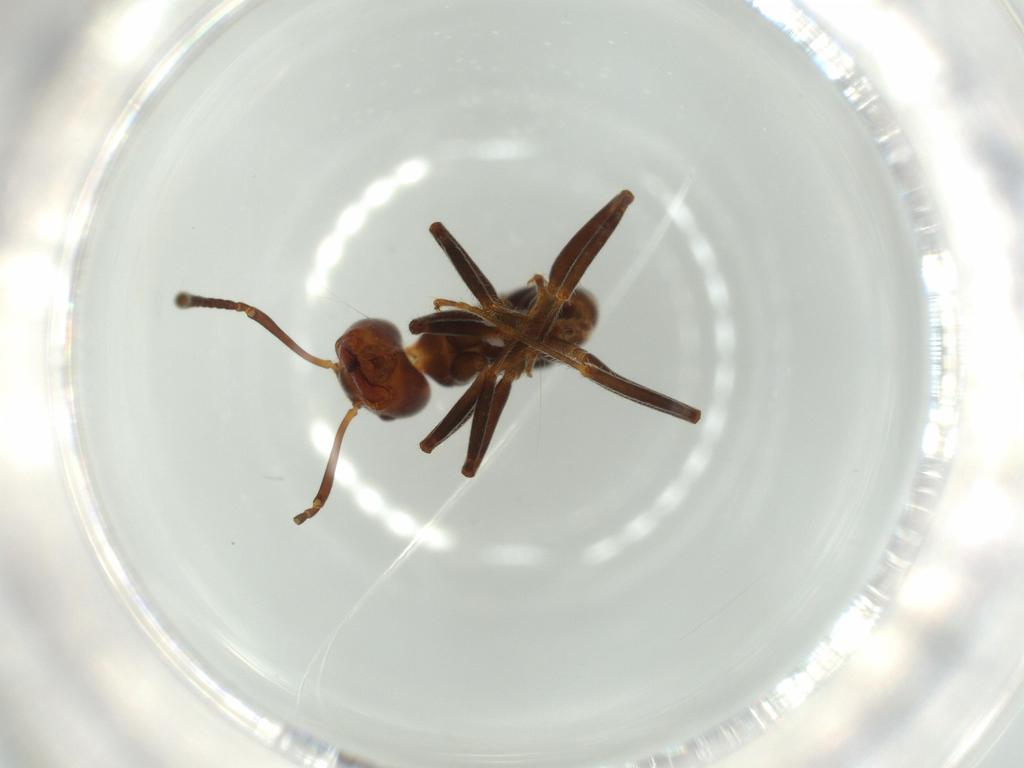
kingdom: Animalia
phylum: Arthropoda
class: Insecta
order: Hymenoptera
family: Formicidae
